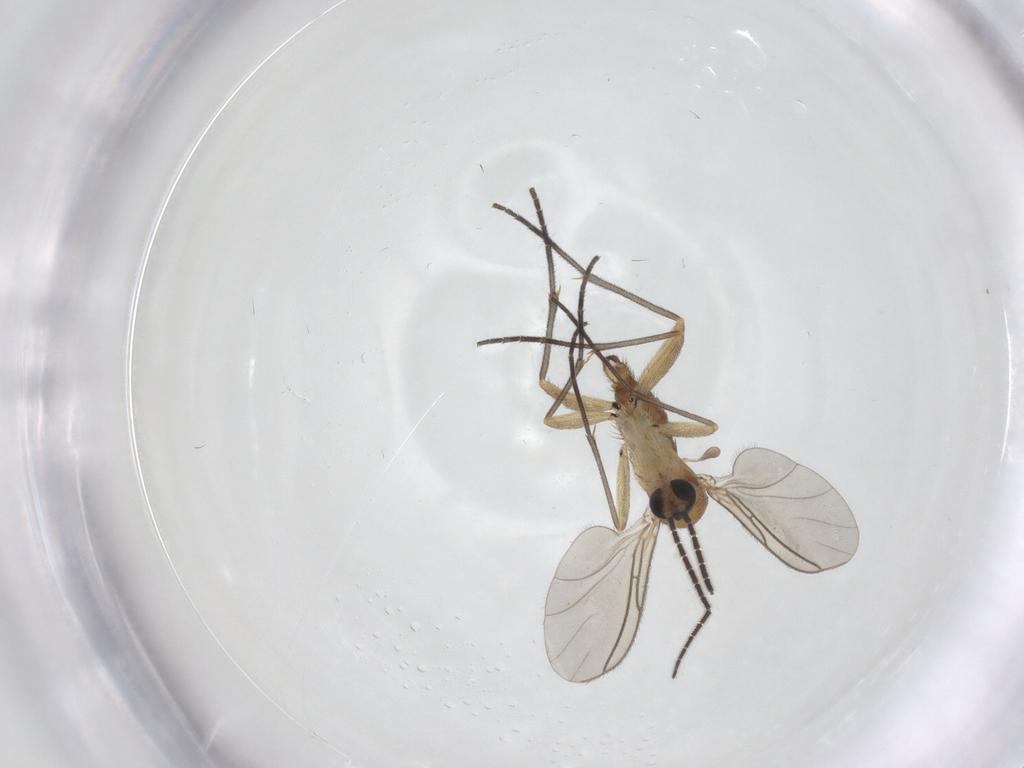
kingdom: Animalia
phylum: Arthropoda
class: Insecta
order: Diptera
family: Sciaridae
